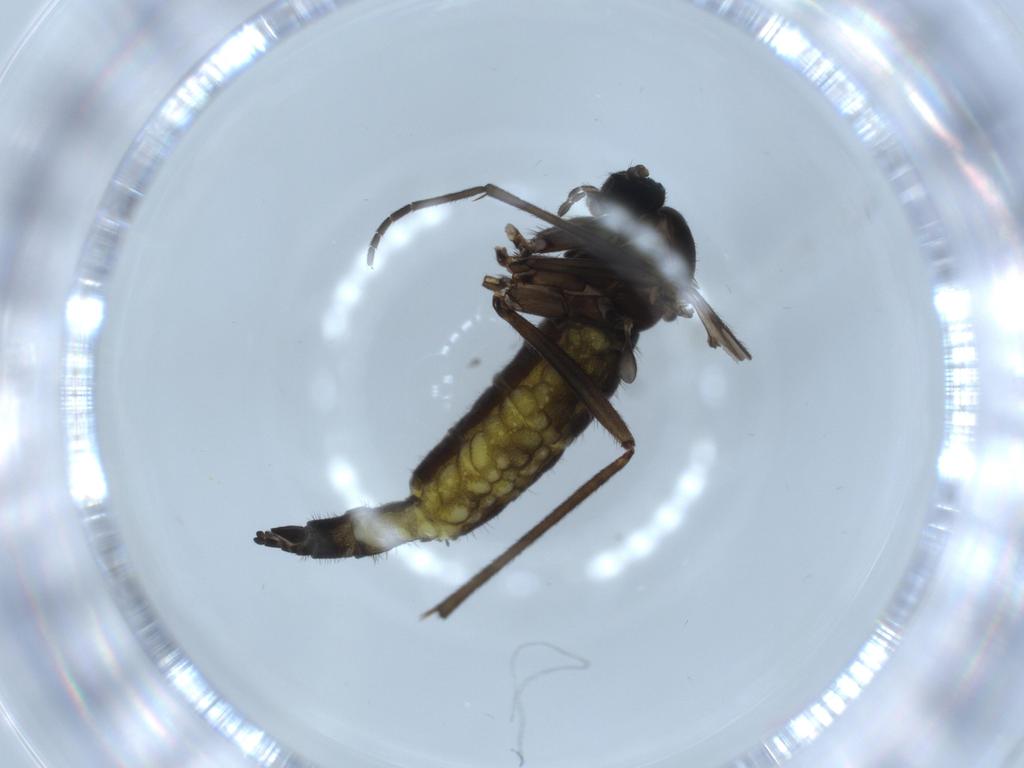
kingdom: Animalia
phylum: Arthropoda
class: Insecta
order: Diptera
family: Sciaridae
